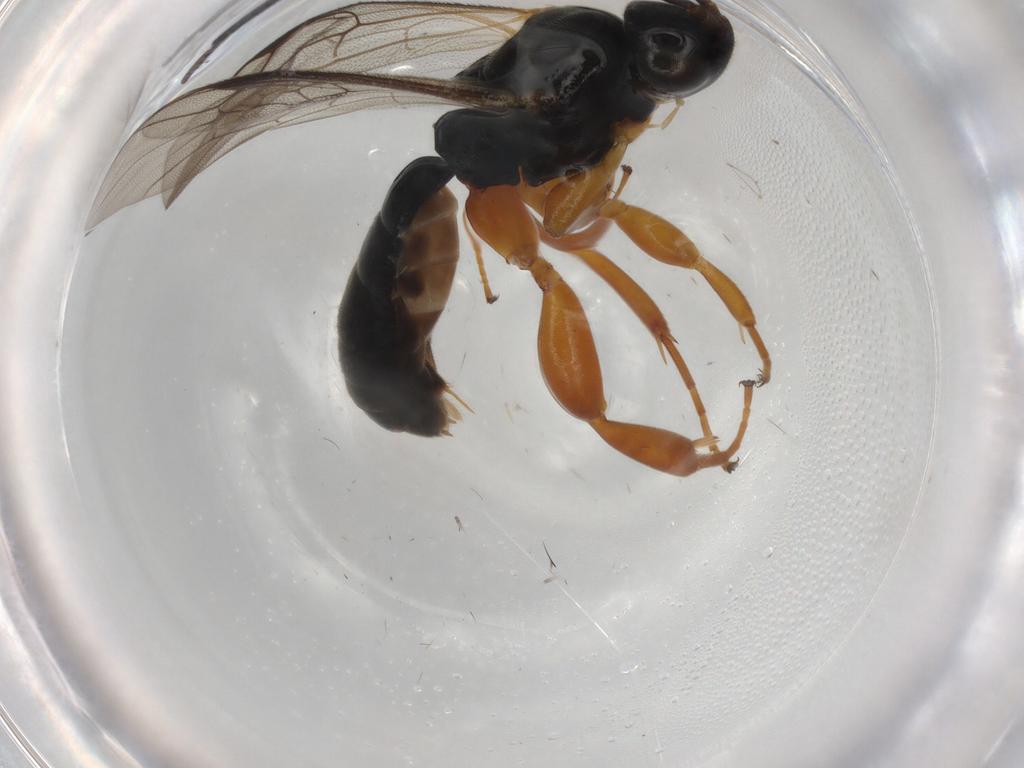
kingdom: Animalia
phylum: Arthropoda
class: Insecta
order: Hymenoptera
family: Ichneumonidae
